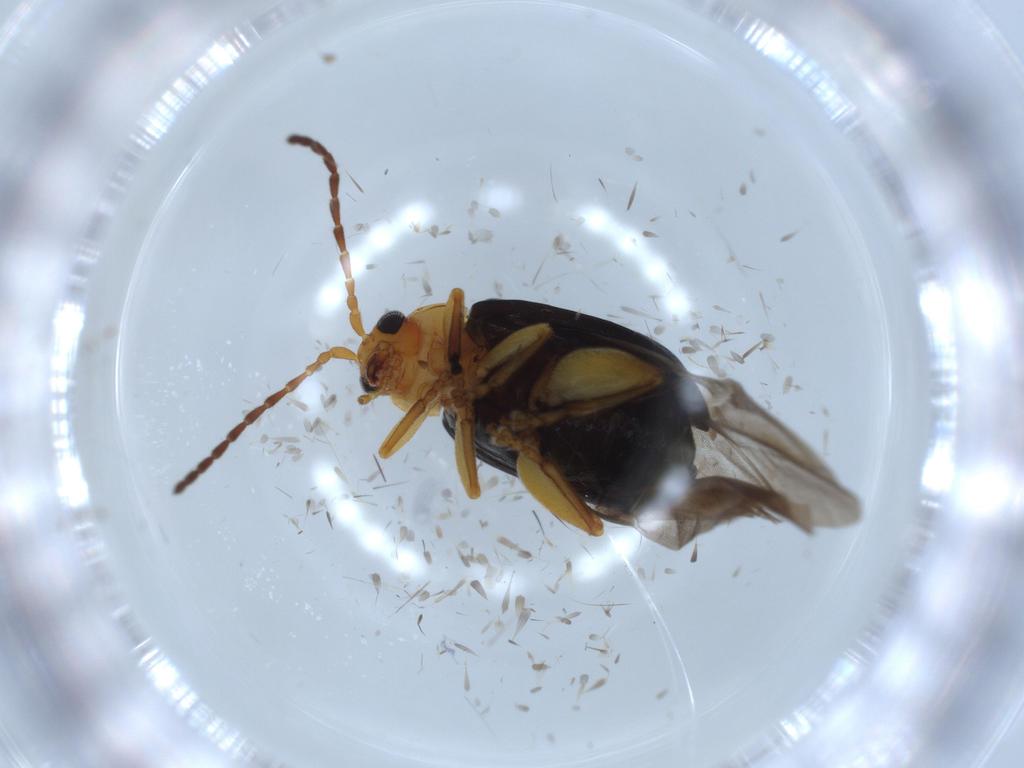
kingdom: Animalia
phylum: Arthropoda
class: Insecta
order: Coleoptera
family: Chrysomelidae
